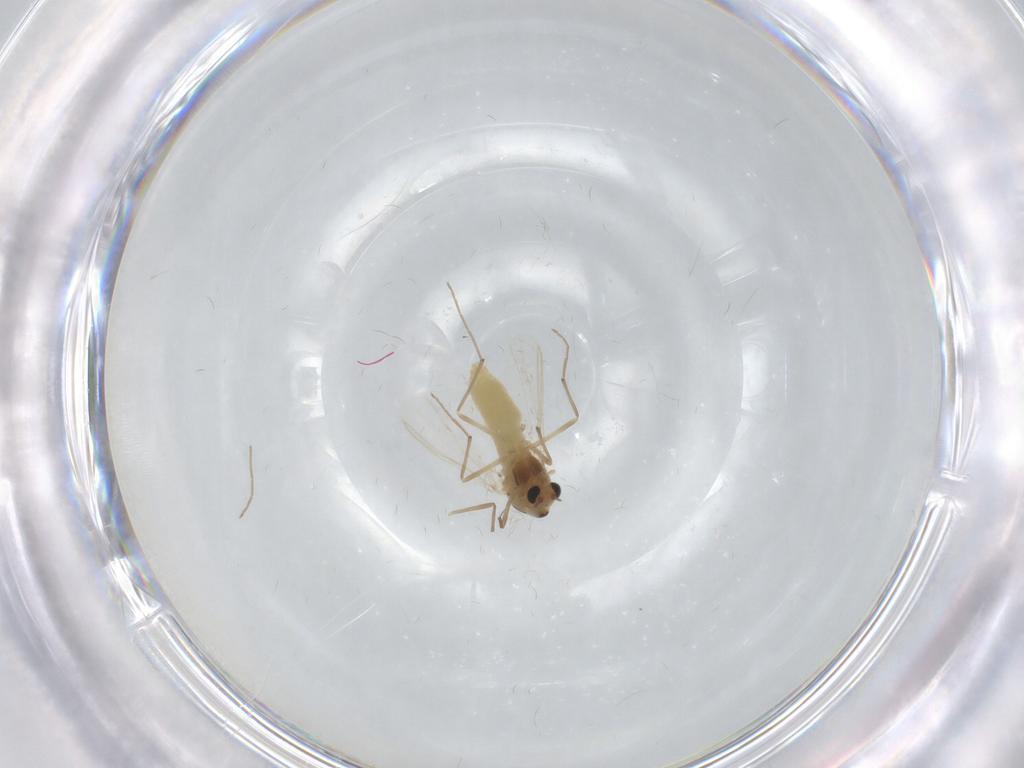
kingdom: Animalia
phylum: Arthropoda
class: Insecta
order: Diptera
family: Chironomidae
